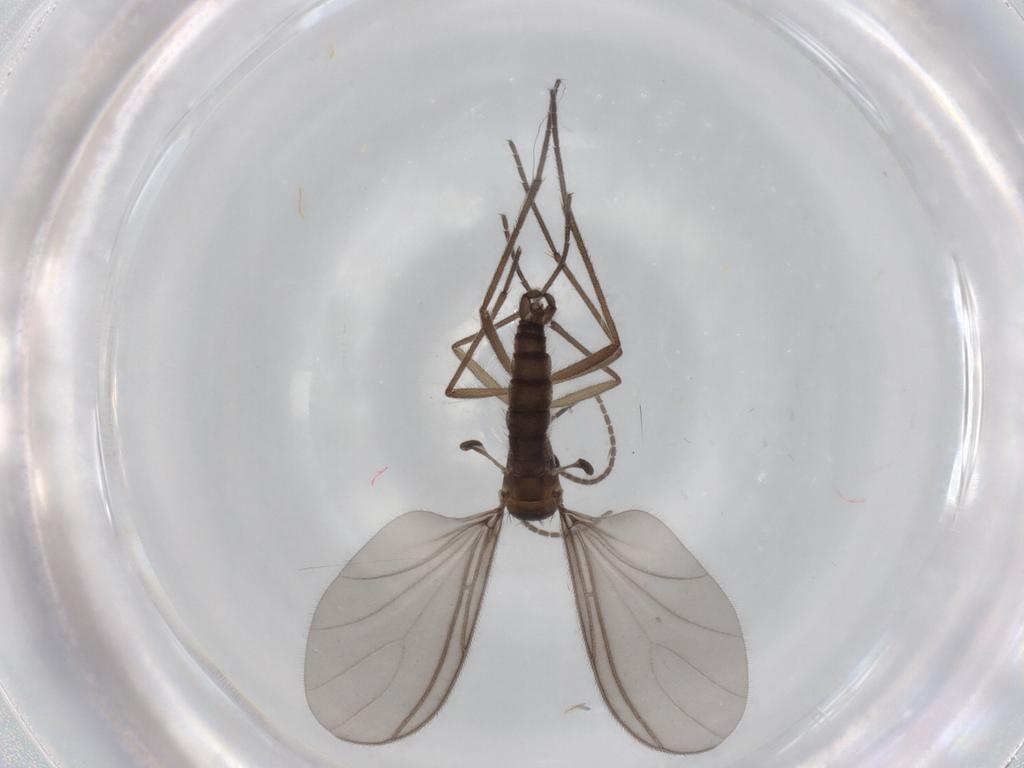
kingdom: Animalia
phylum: Arthropoda
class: Insecta
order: Diptera
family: Sciaridae
